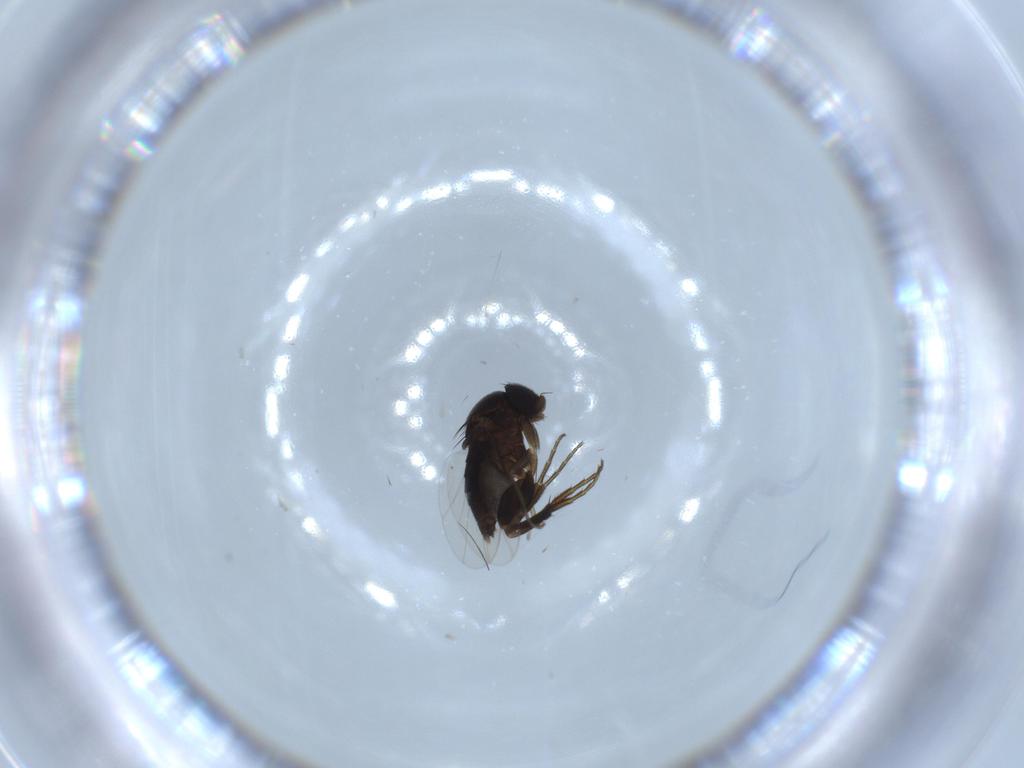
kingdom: Animalia
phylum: Arthropoda
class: Insecta
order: Diptera
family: Phoridae
